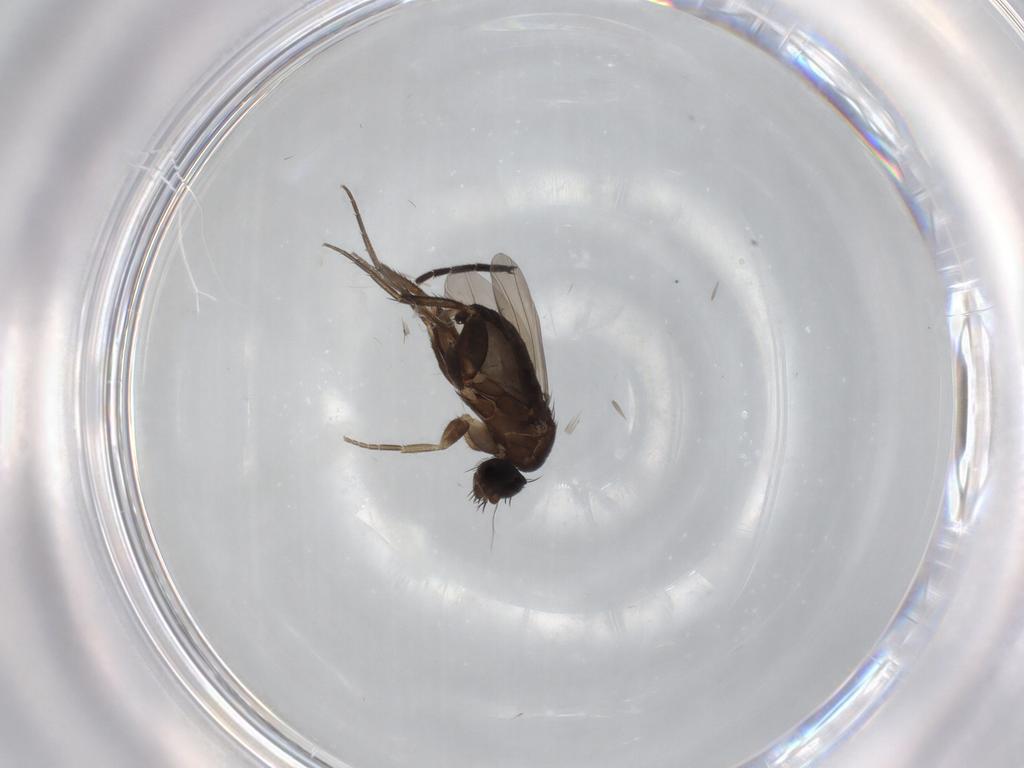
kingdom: Animalia
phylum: Arthropoda
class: Insecta
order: Diptera
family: Phoridae
